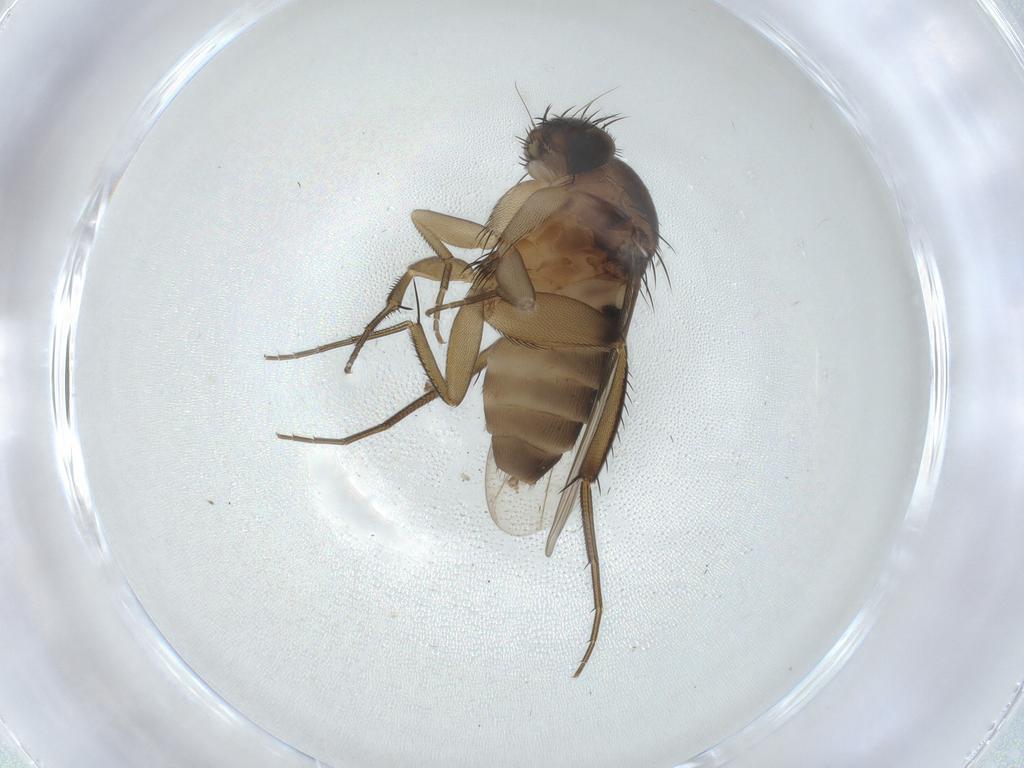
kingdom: Animalia
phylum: Arthropoda
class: Insecta
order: Diptera
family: Phoridae
